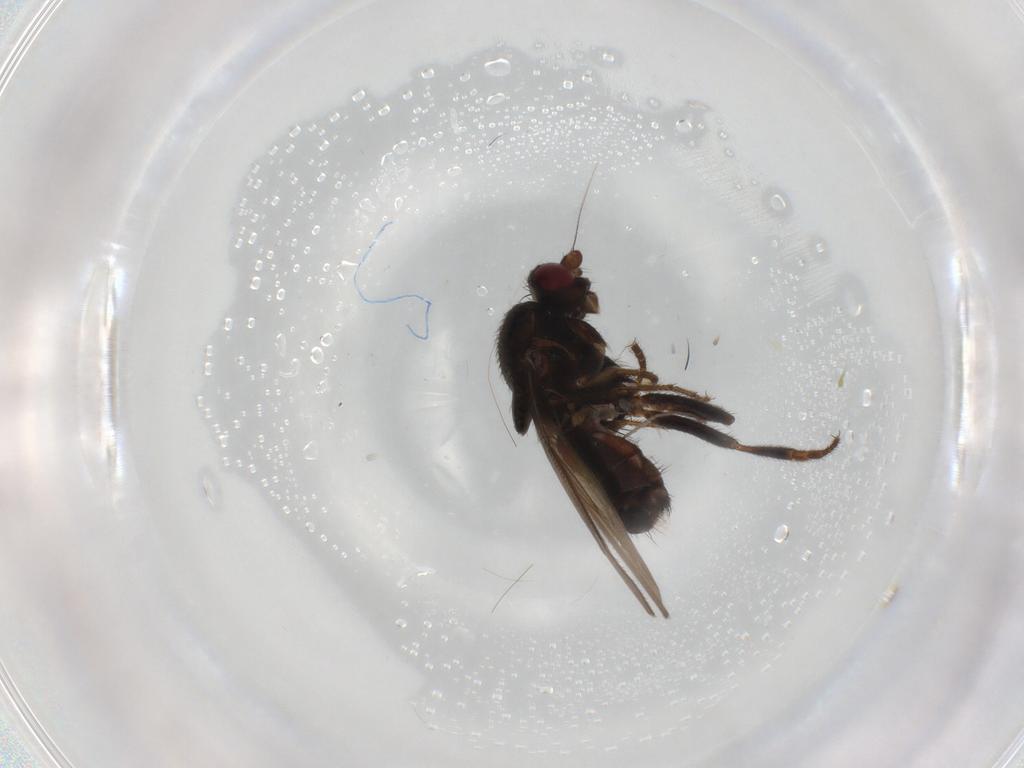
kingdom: Animalia
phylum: Arthropoda
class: Insecta
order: Diptera
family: Sphaeroceridae
